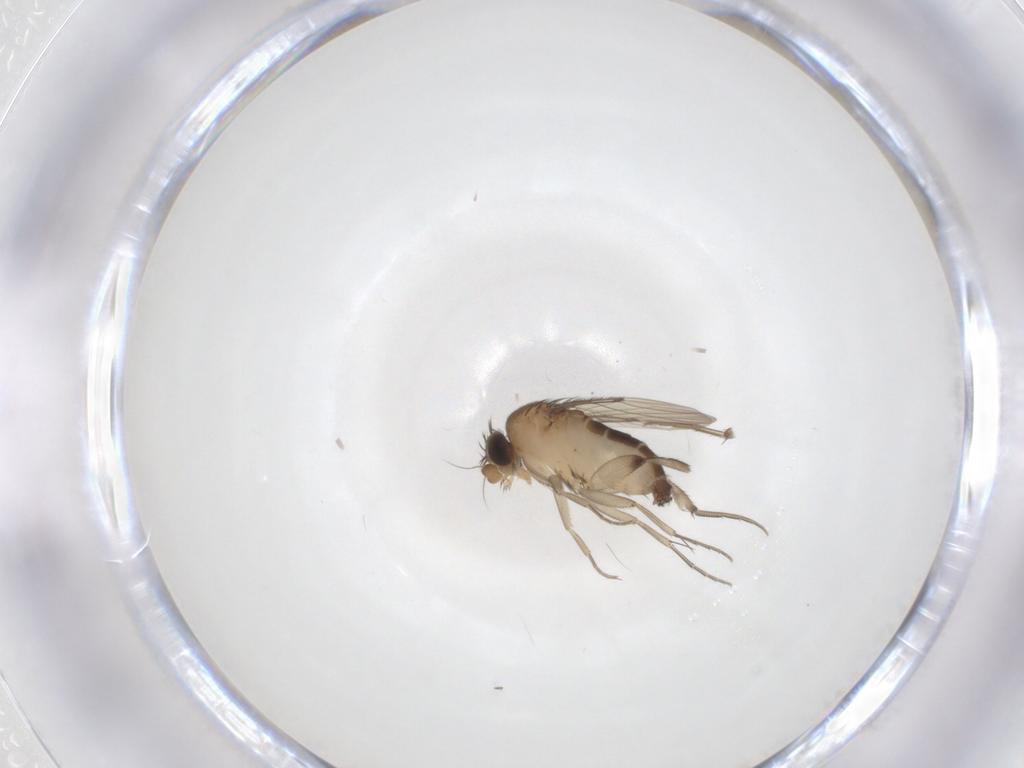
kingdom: Animalia
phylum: Arthropoda
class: Insecta
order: Diptera
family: Phoridae
